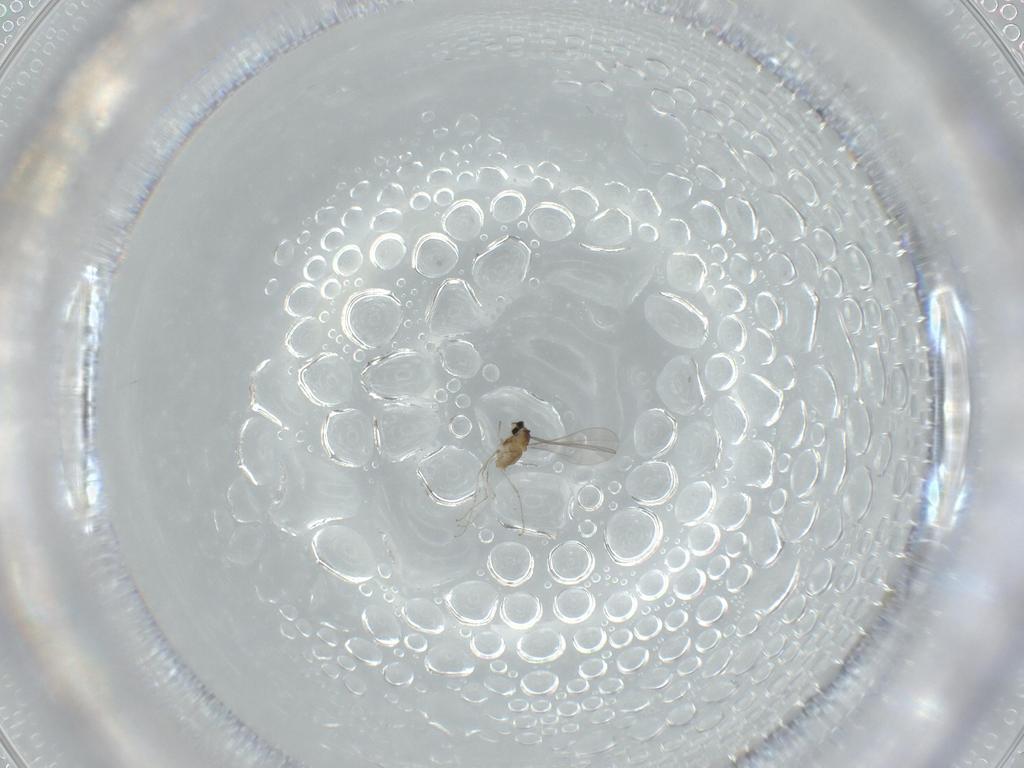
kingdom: Animalia
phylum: Arthropoda
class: Insecta
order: Diptera
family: Cecidomyiidae
